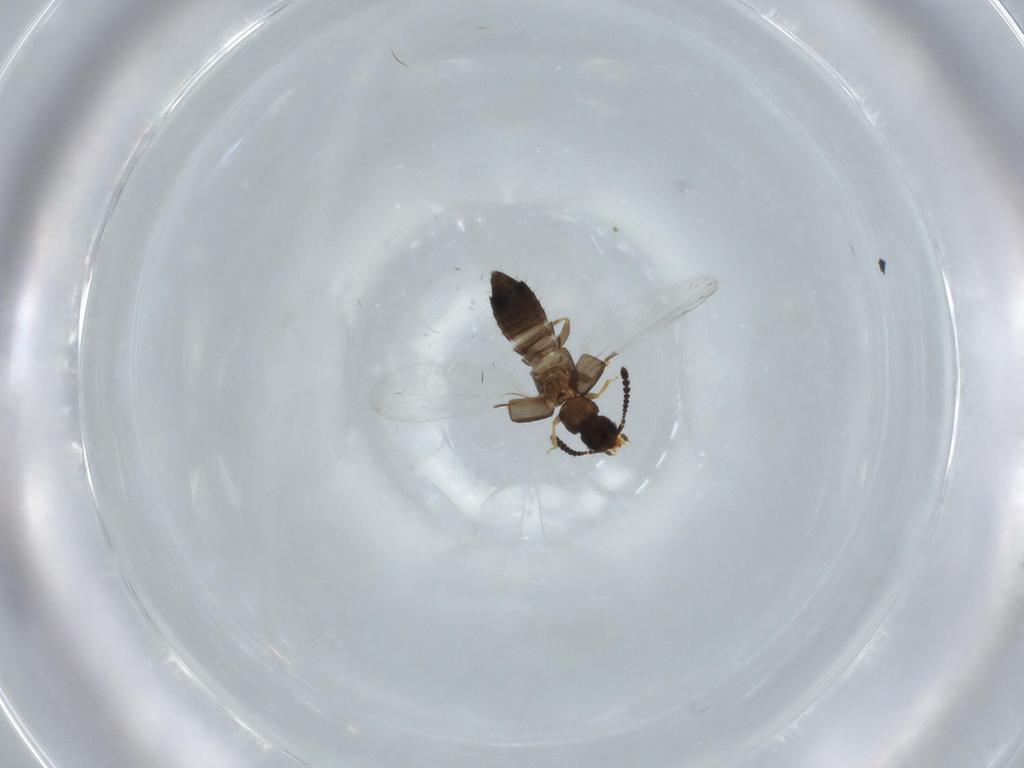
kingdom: Animalia
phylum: Arthropoda
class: Insecta
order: Coleoptera
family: Staphylinidae
